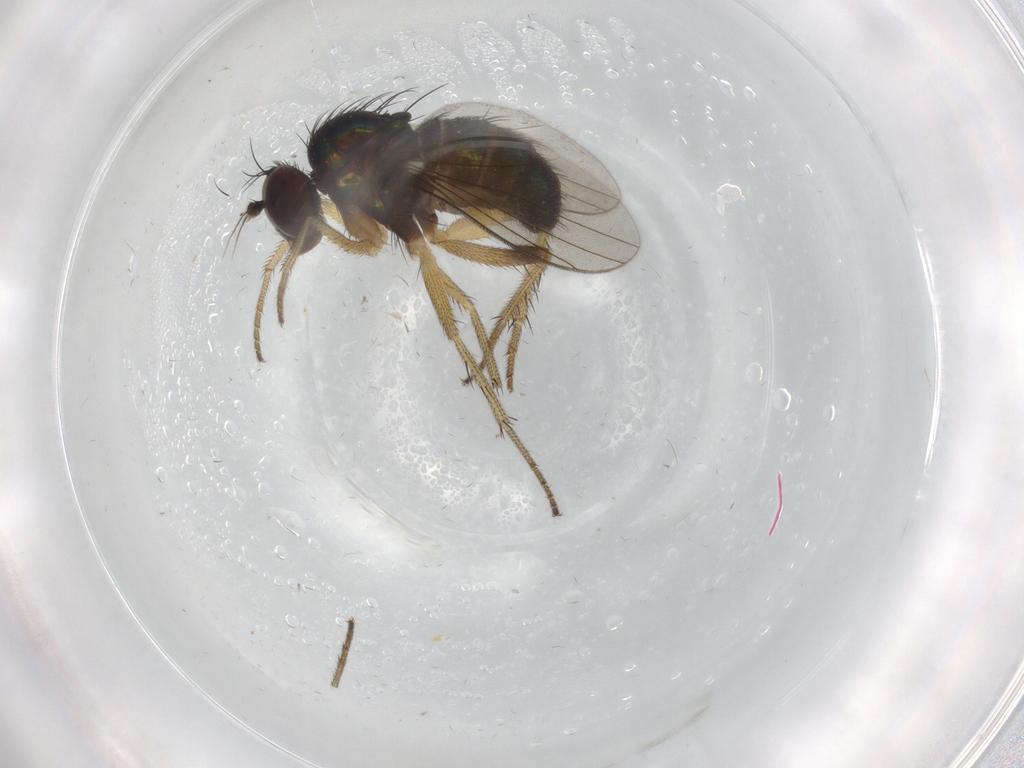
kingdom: Animalia
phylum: Arthropoda
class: Insecta
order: Diptera
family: Dolichopodidae
